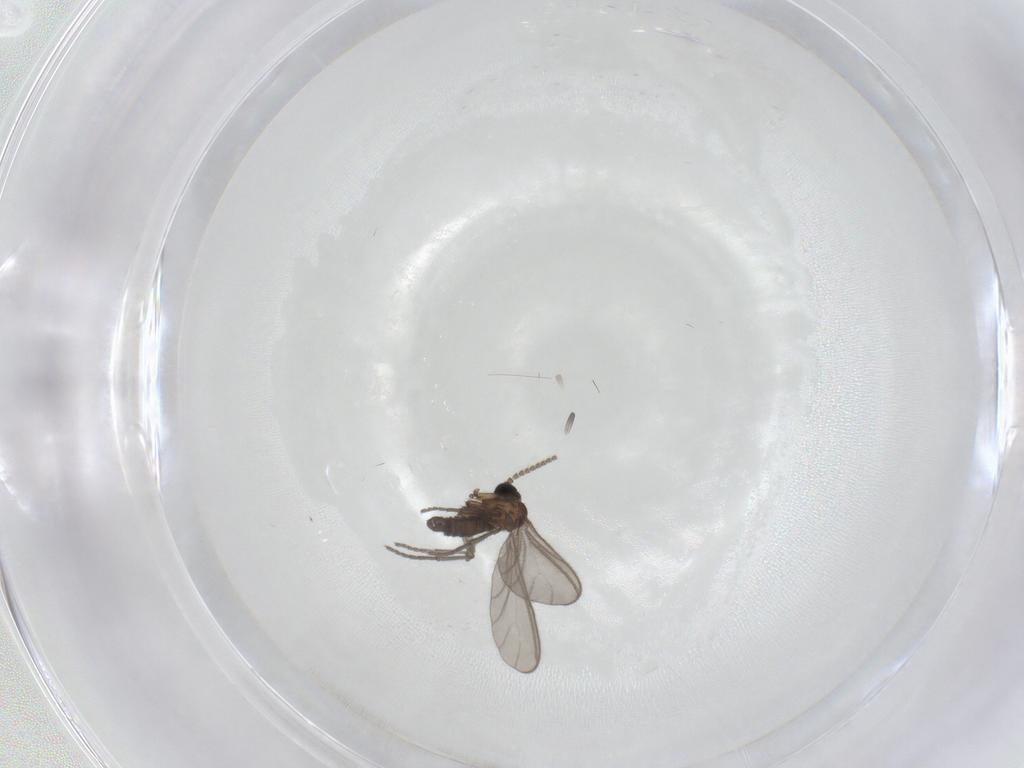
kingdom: Animalia
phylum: Arthropoda
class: Insecta
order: Diptera
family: Sciaridae
